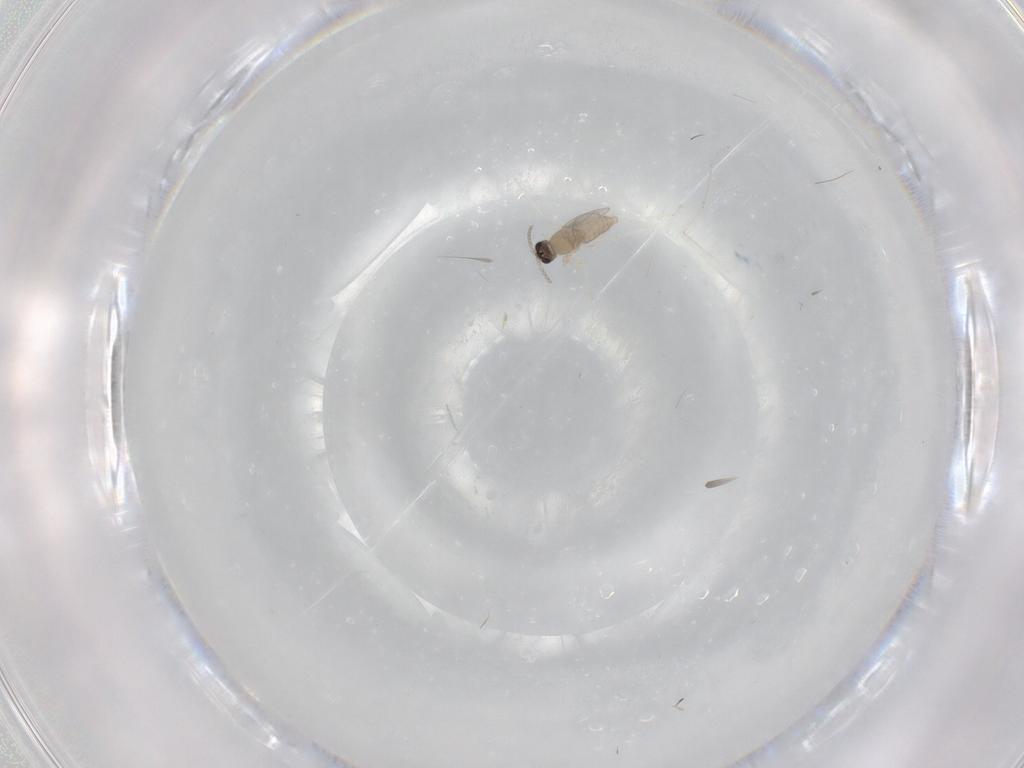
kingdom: Animalia
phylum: Arthropoda
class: Insecta
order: Diptera
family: Cecidomyiidae
